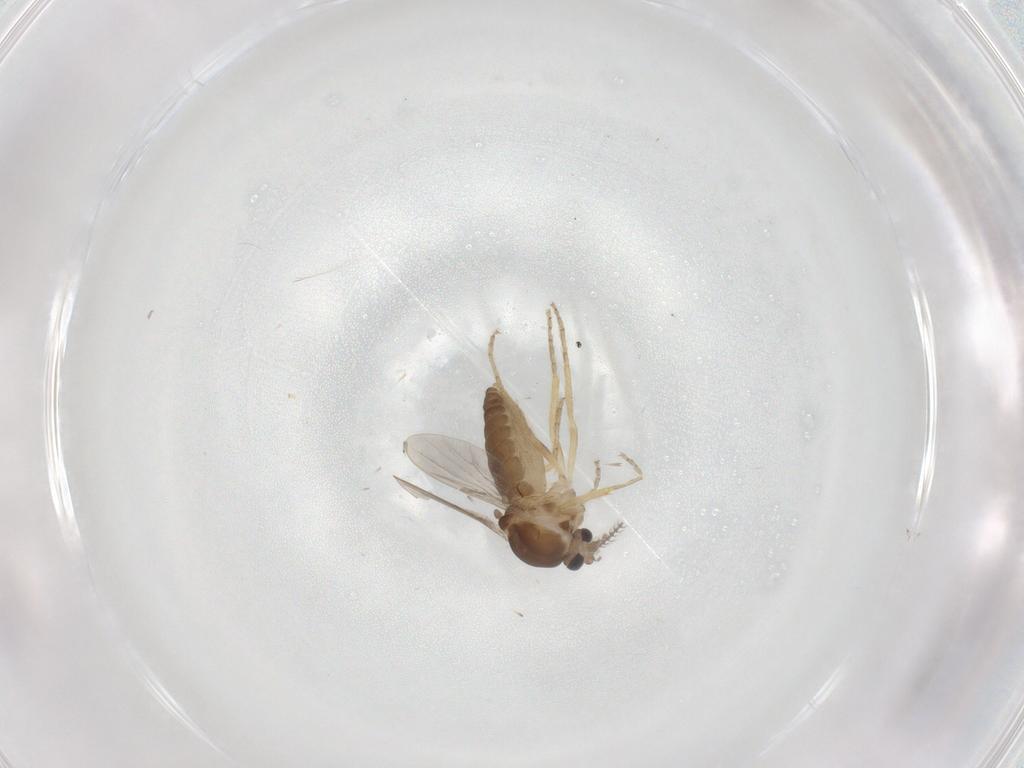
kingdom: Animalia
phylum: Arthropoda
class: Insecta
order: Diptera
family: Ceratopogonidae
